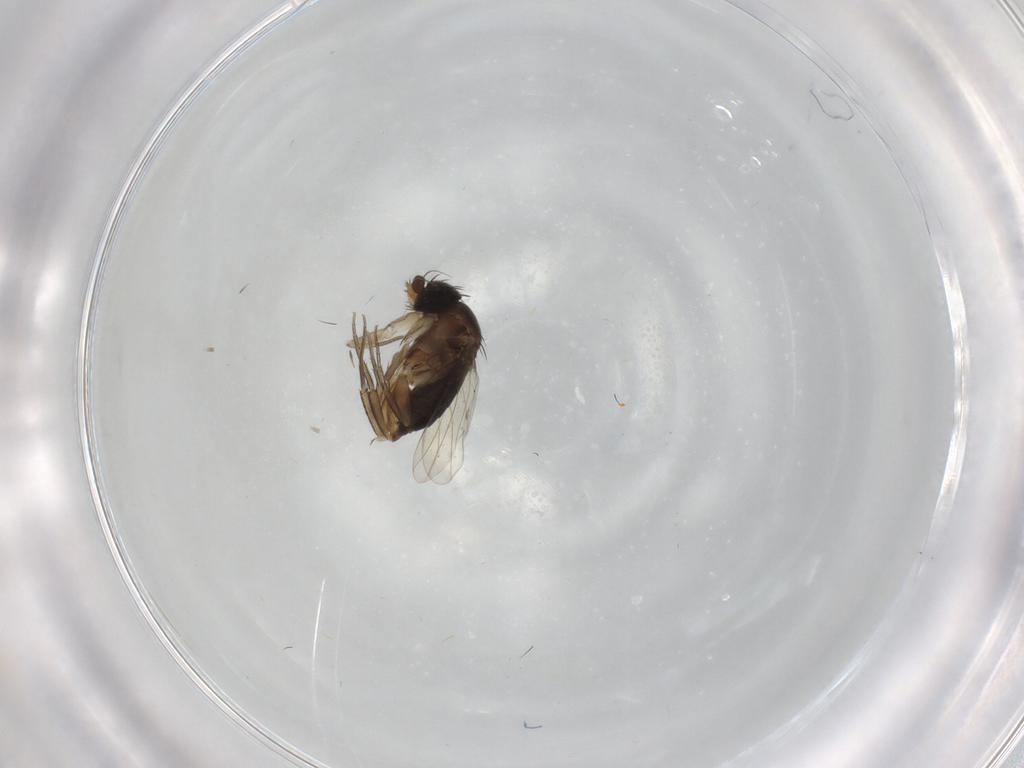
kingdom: Animalia
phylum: Arthropoda
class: Insecta
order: Diptera
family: Phoridae
